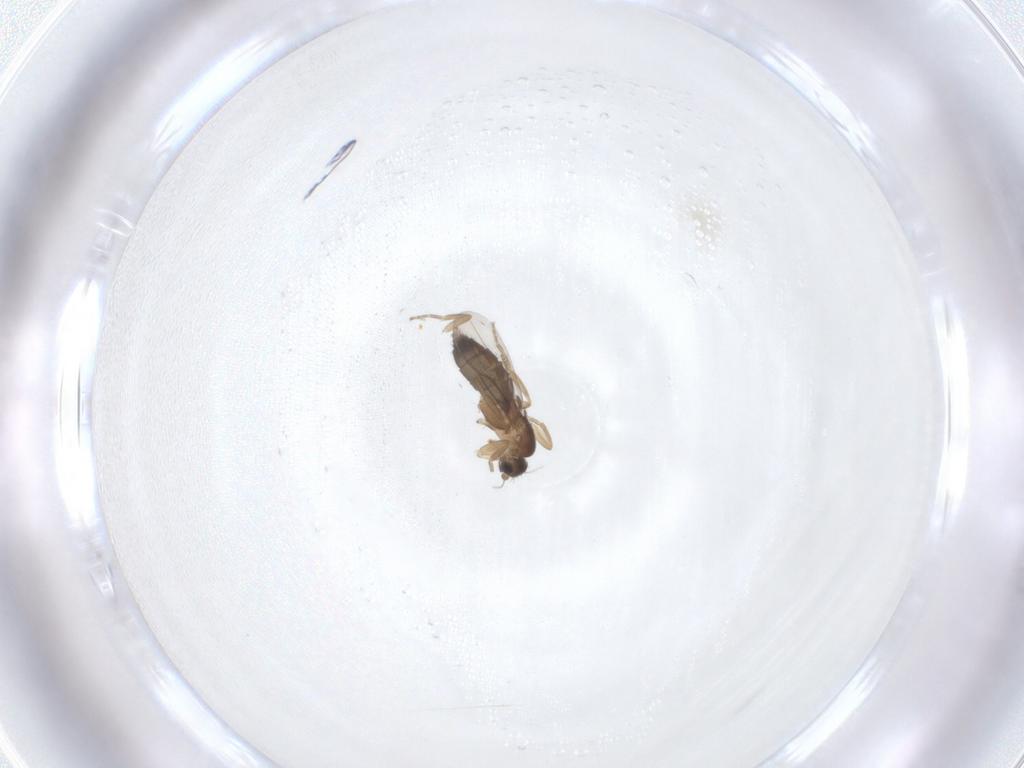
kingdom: Animalia
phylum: Arthropoda
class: Insecta
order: Diptera
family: Phoridae
